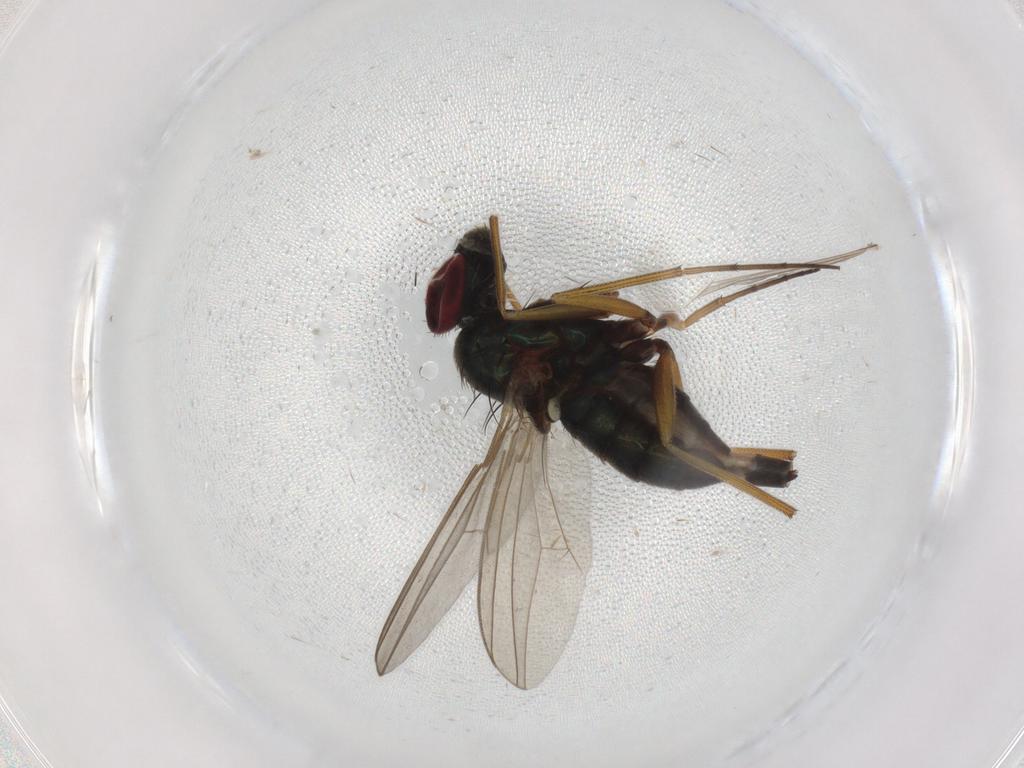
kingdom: Animalia
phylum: Arthropoda
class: Insecta
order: Diptera
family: Dolichopodidae
